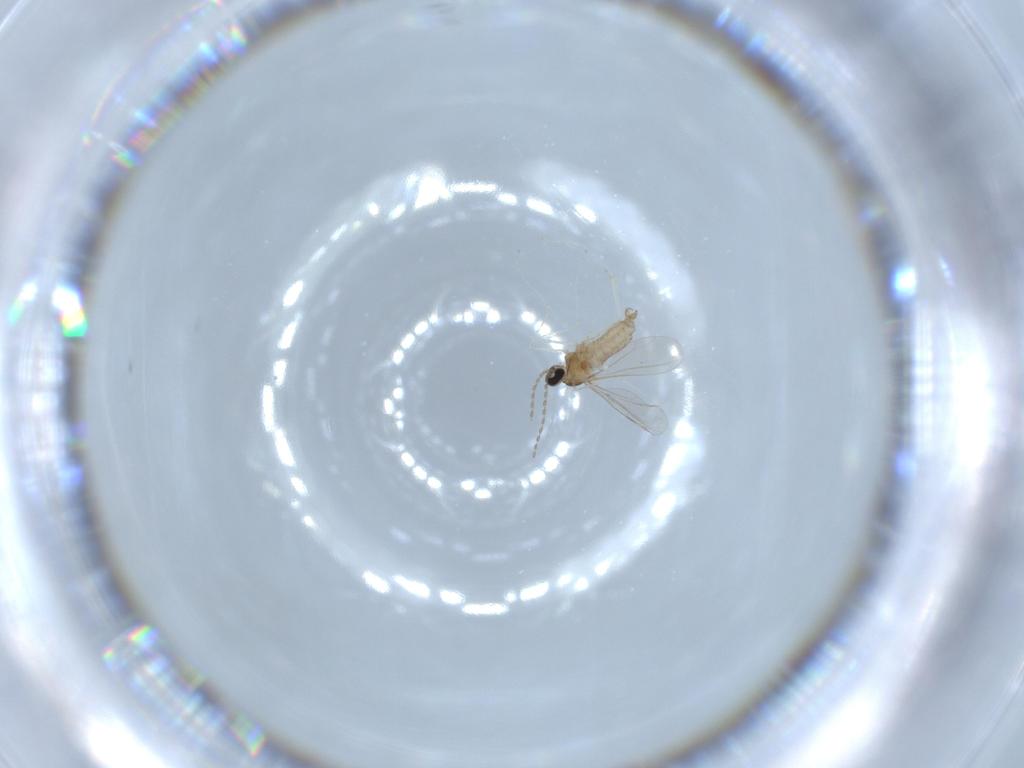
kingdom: Animalia
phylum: Arthropoda
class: Insecta
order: Diptera
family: Cecidomyiidae
